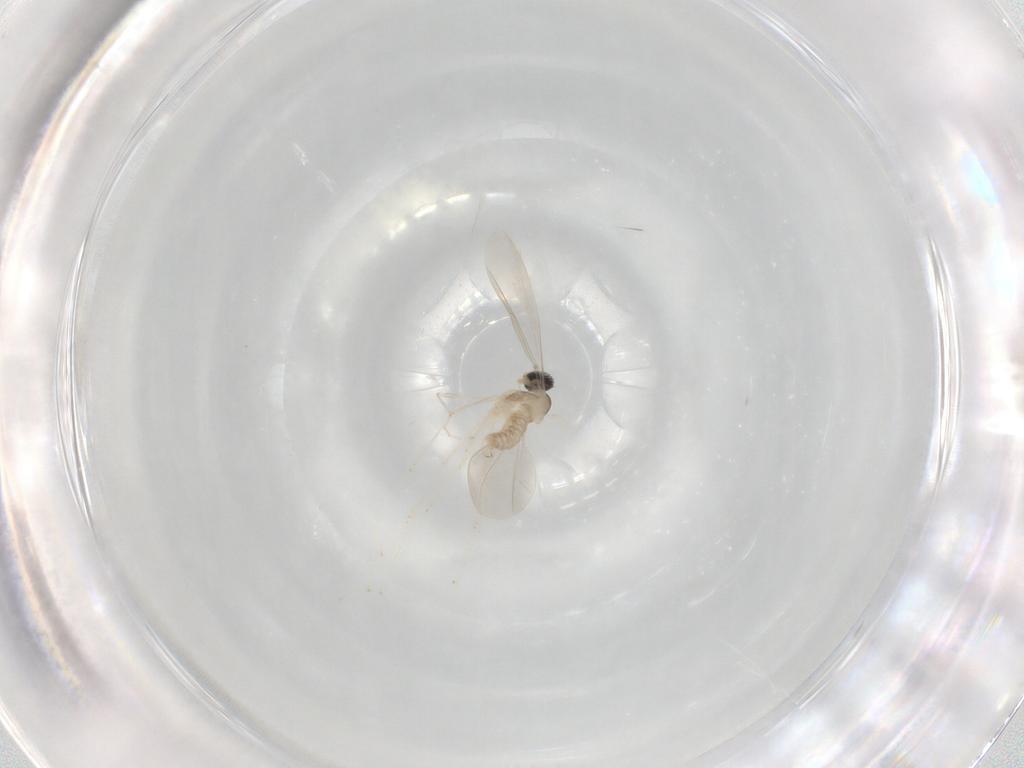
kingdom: Animalia
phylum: Arthropoda
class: Insecta
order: Diptera
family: Cecidomyiidae
